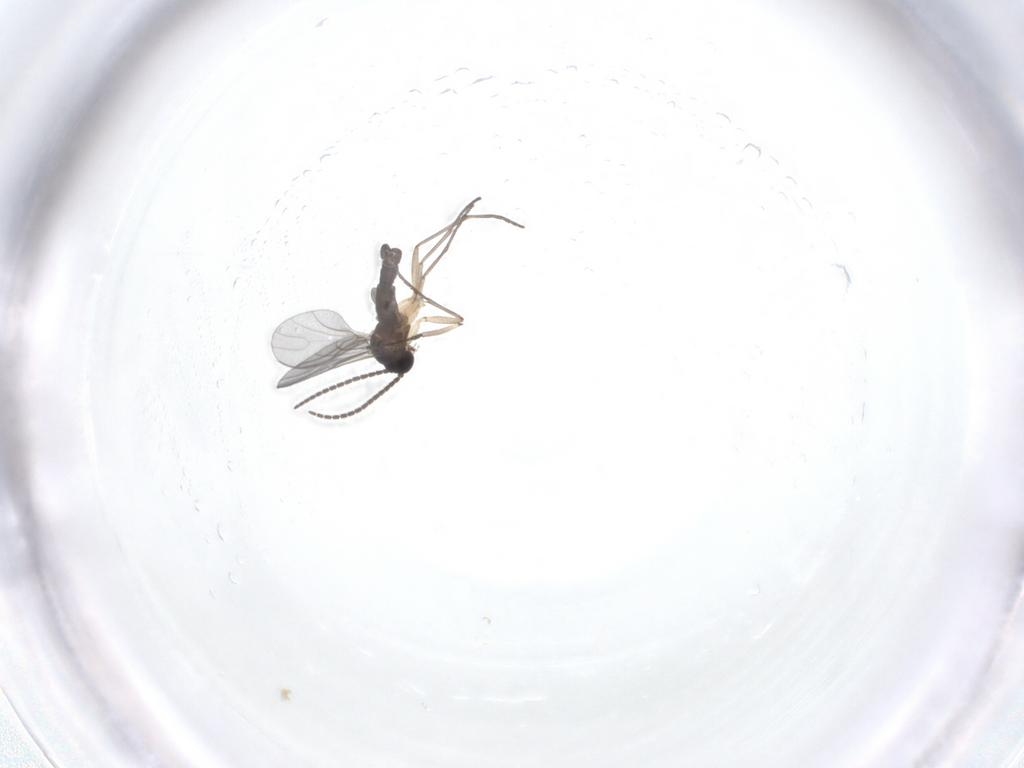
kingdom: Animalia
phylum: Arthropoda
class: Insecta
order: Diptera
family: Sciaridae
